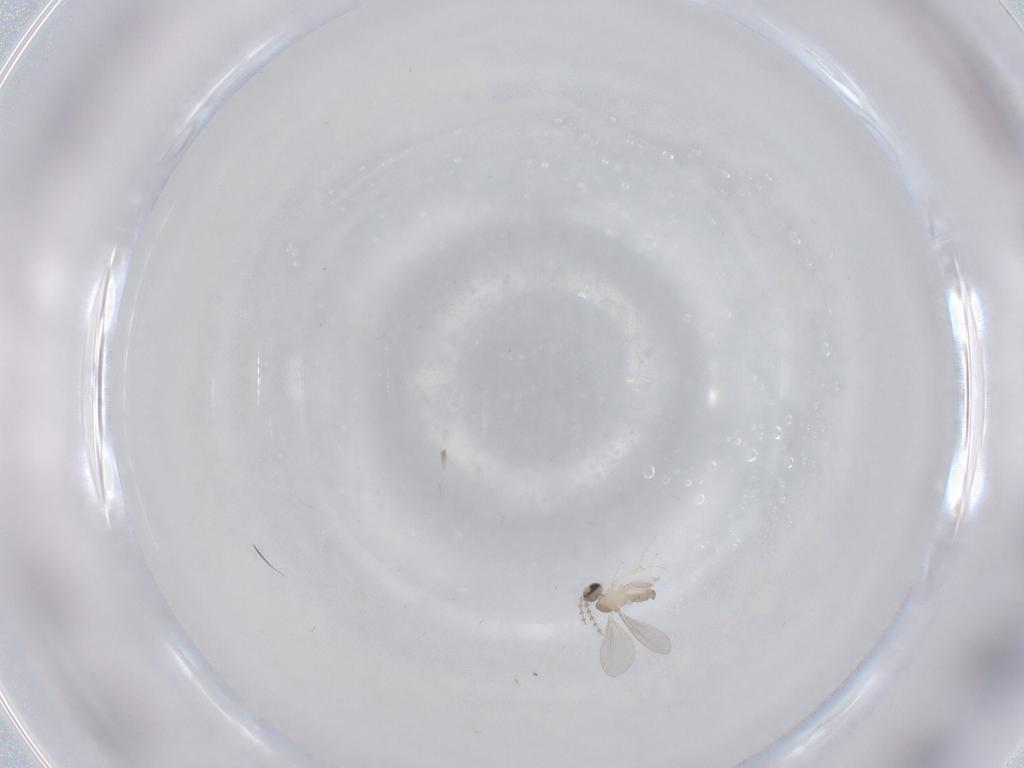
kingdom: Animalia
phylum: Arthropoda
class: Insecta
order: Diptera
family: Cecidomyiidae
